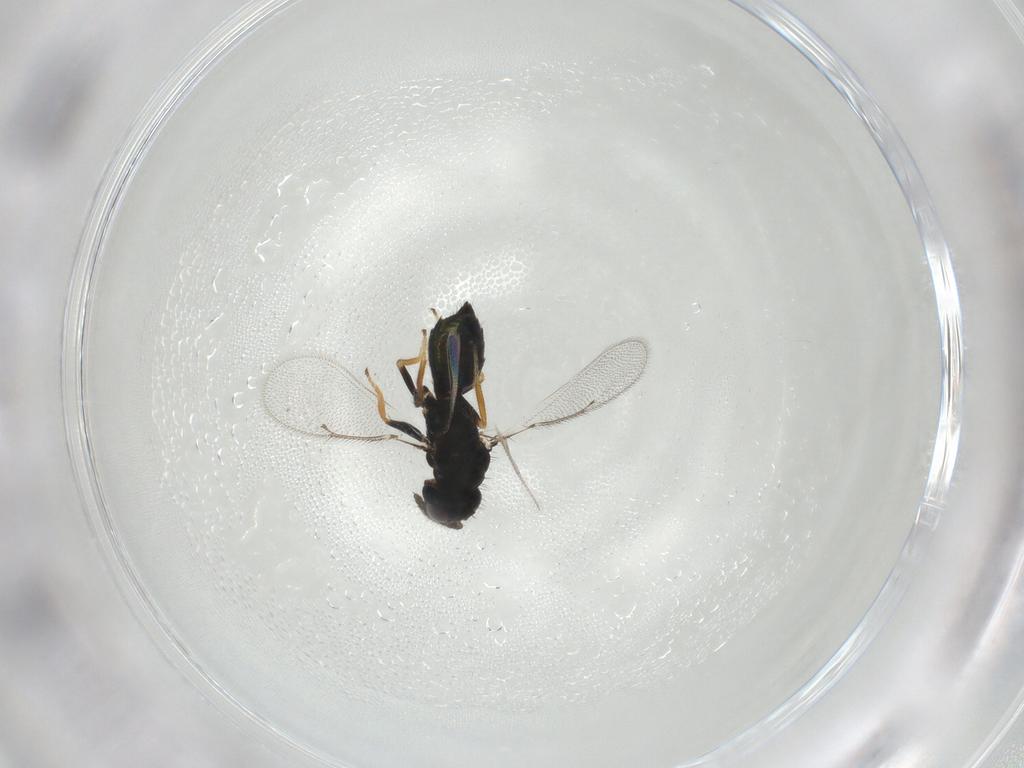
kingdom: Animalia
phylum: Arthropoda
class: Insecta
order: Hymenoptera
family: Eulophidae
